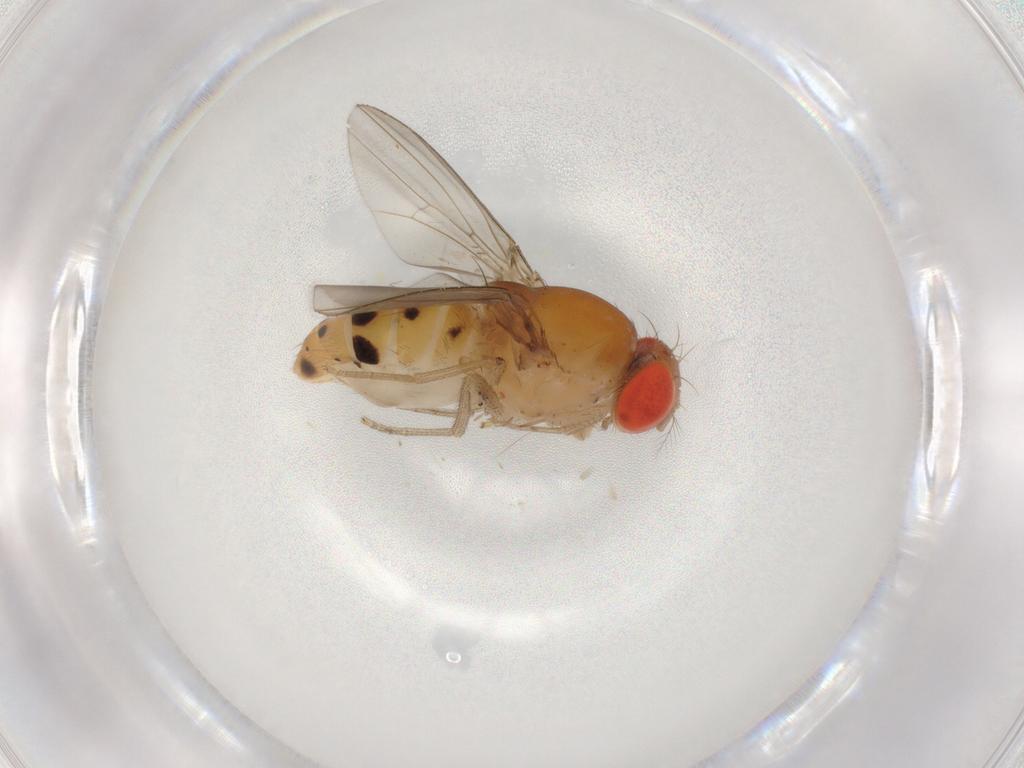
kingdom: Animalia
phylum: Arthropoda
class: Insecta
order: Diptera
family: Drosophilidae
